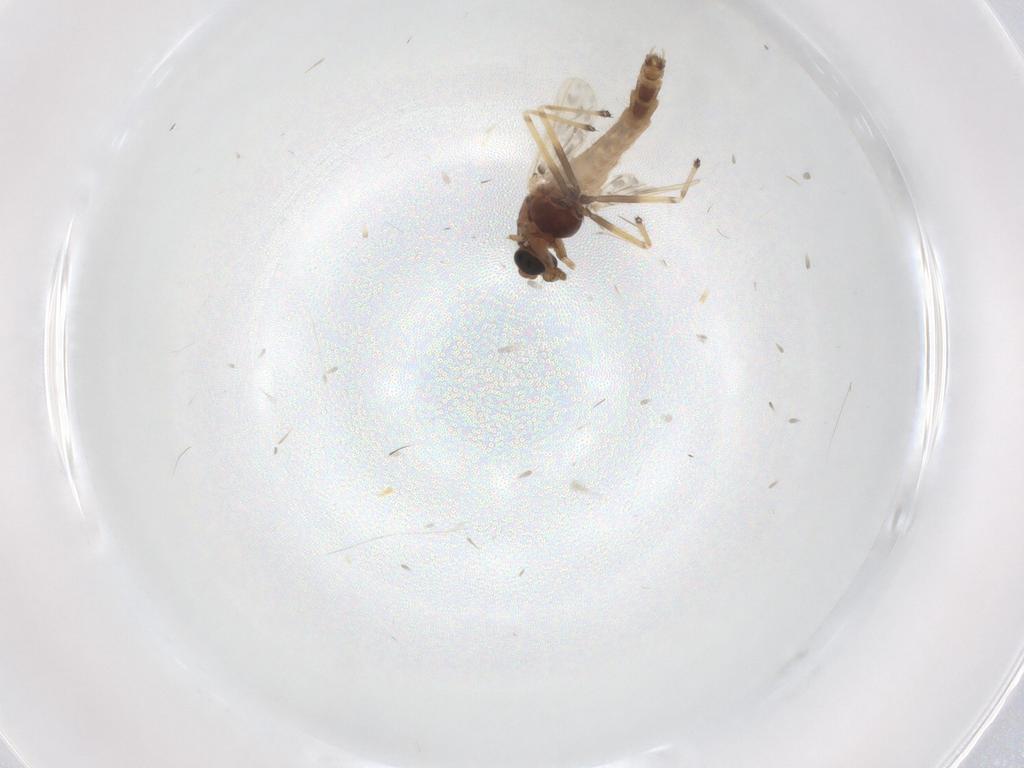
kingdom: Animalia
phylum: Arthropoda
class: Insecta
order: Diptera
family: Chironomidae
